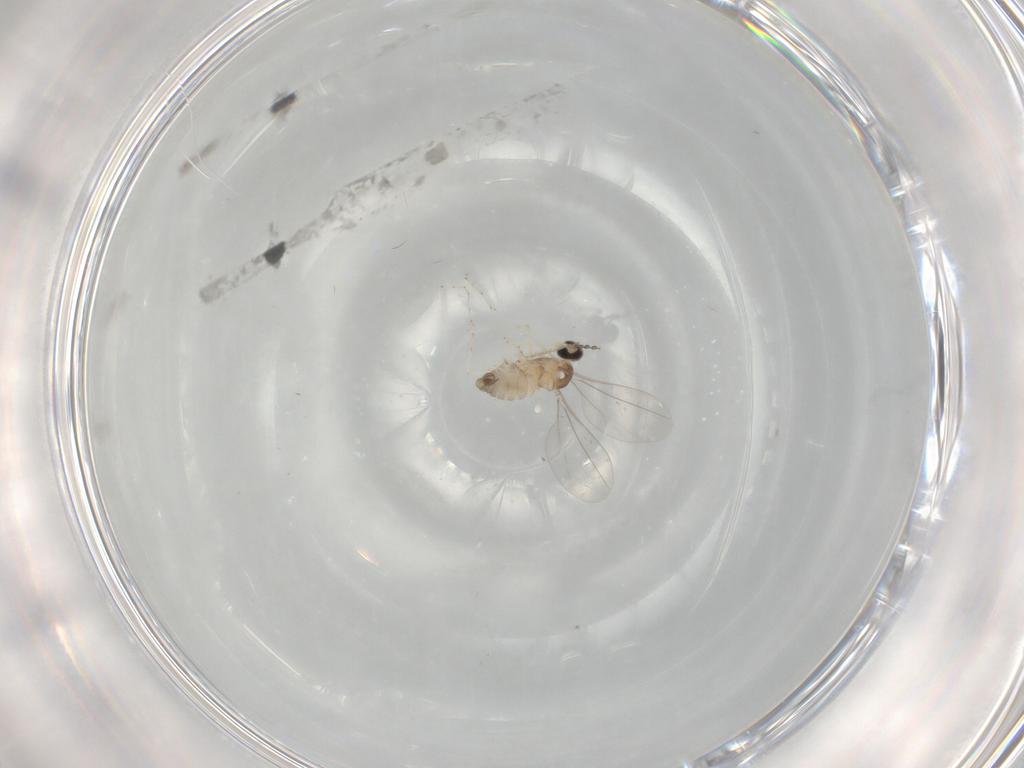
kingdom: Animalia
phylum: Arthropoda
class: Insecta
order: Diptera
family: Cecidomyiidae
